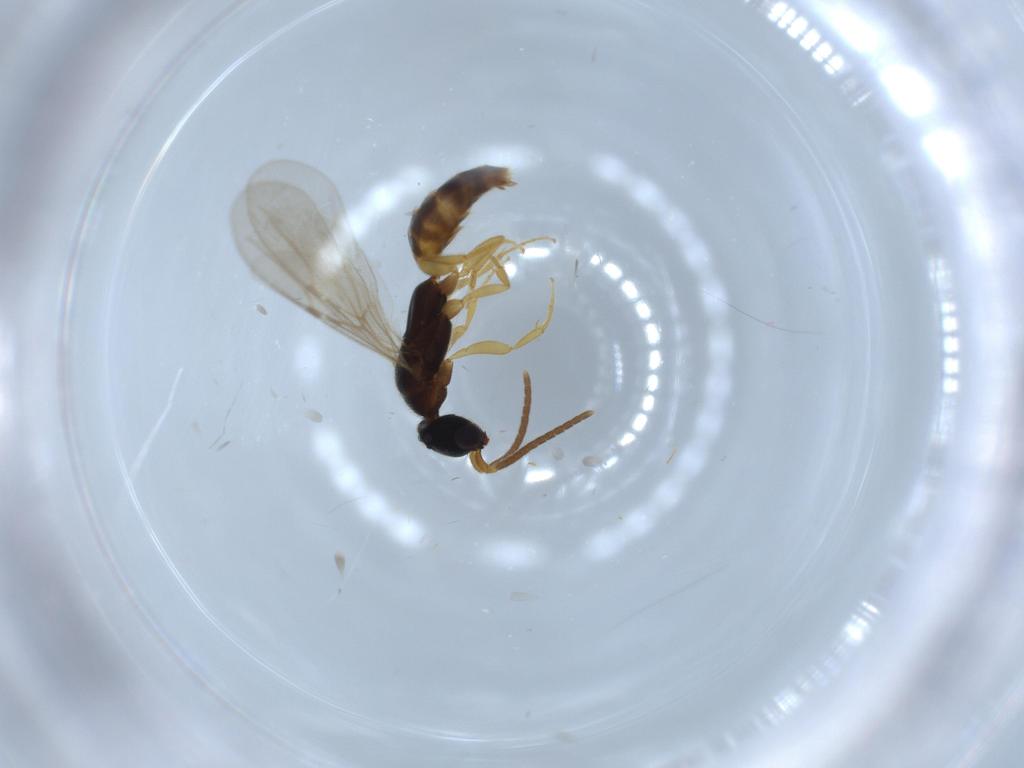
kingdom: Animalia
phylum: Arthropoda
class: Insecta
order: Hymenoptera
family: Bethylidae
